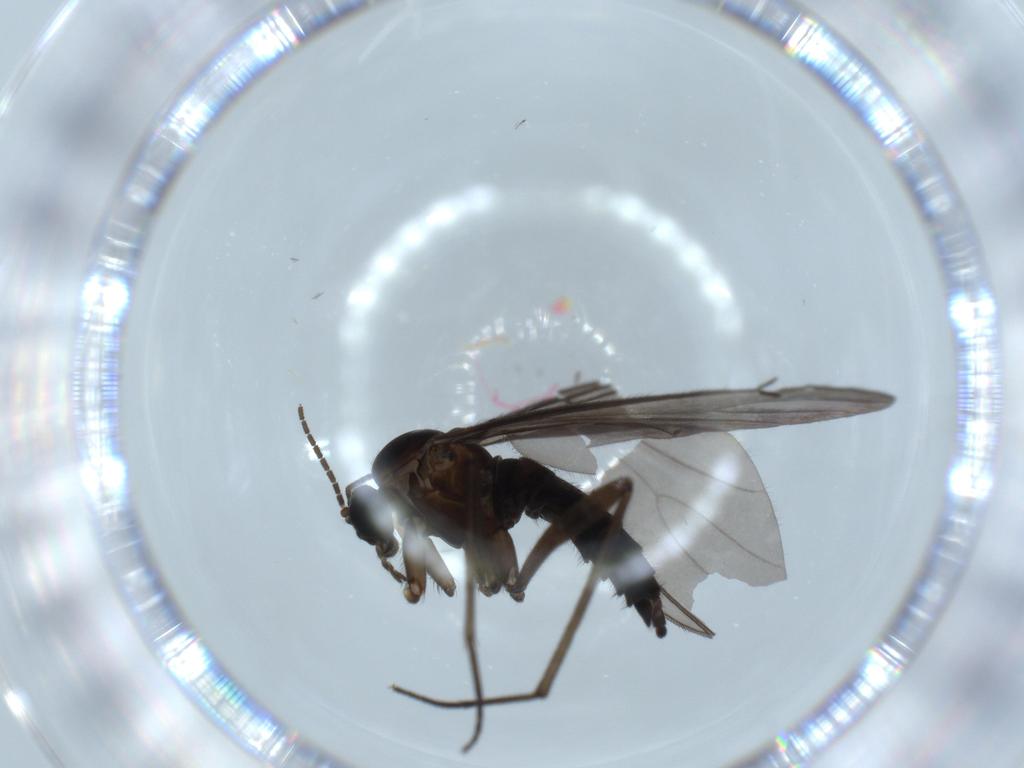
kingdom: Animalia
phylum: Arthropoda
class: Insecta
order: Diptera
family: Sciaridae
